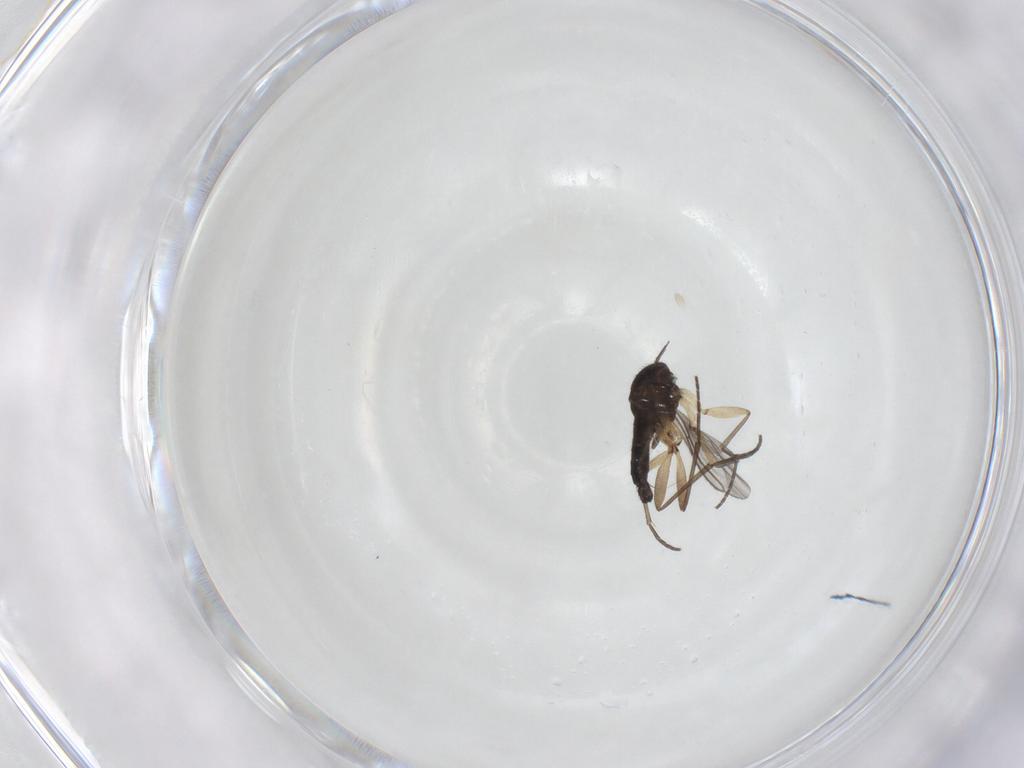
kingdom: Animalia
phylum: Arthropoda
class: Insecta
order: Diptera
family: Sciaridae
